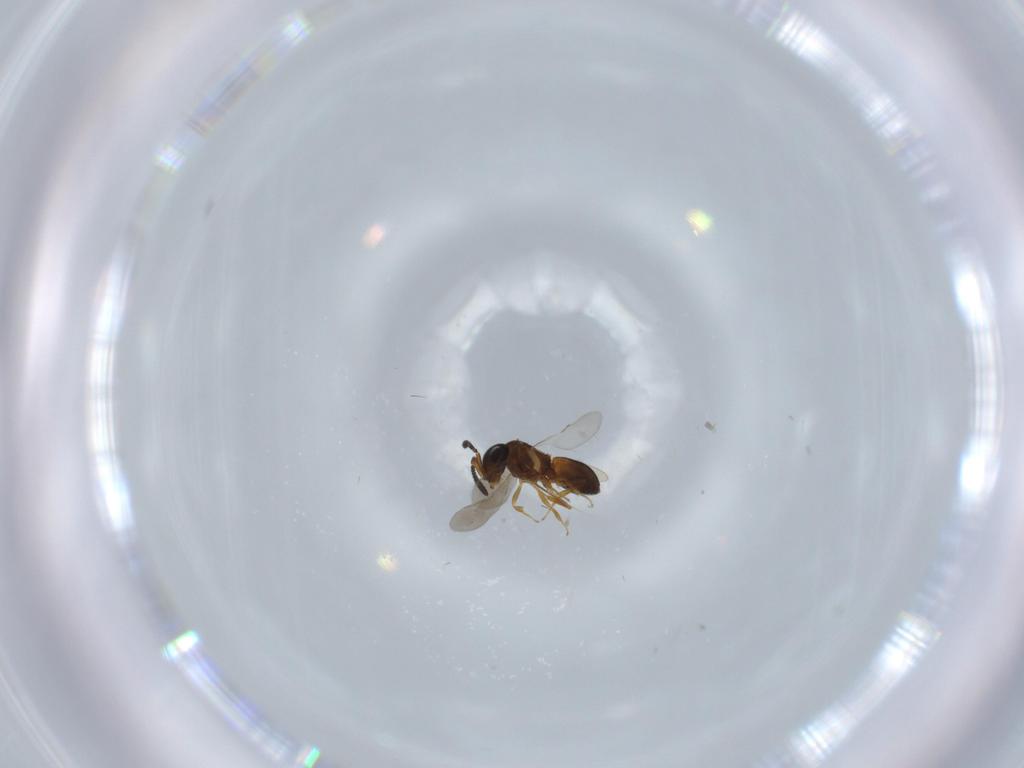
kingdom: Animalia
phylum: Arthropoda
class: Insecta
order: Hymenoptera
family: Scelionidae
